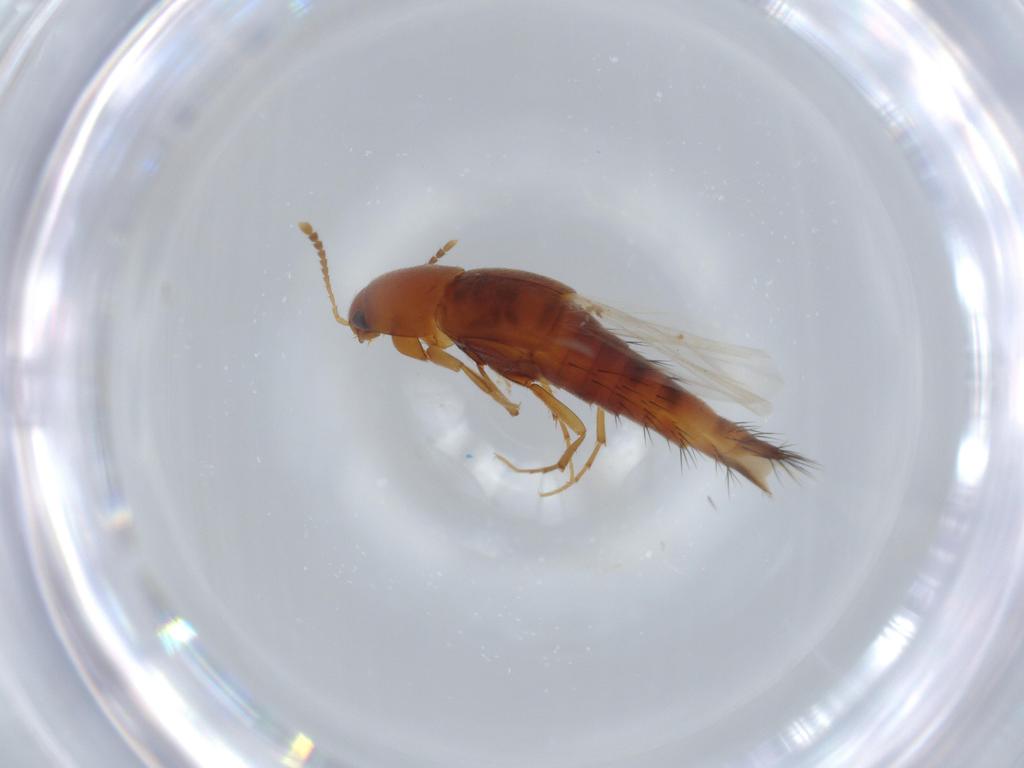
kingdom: Animalia
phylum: Arthropoda
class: Insecta
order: Coleoptera
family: Staphylinidae
